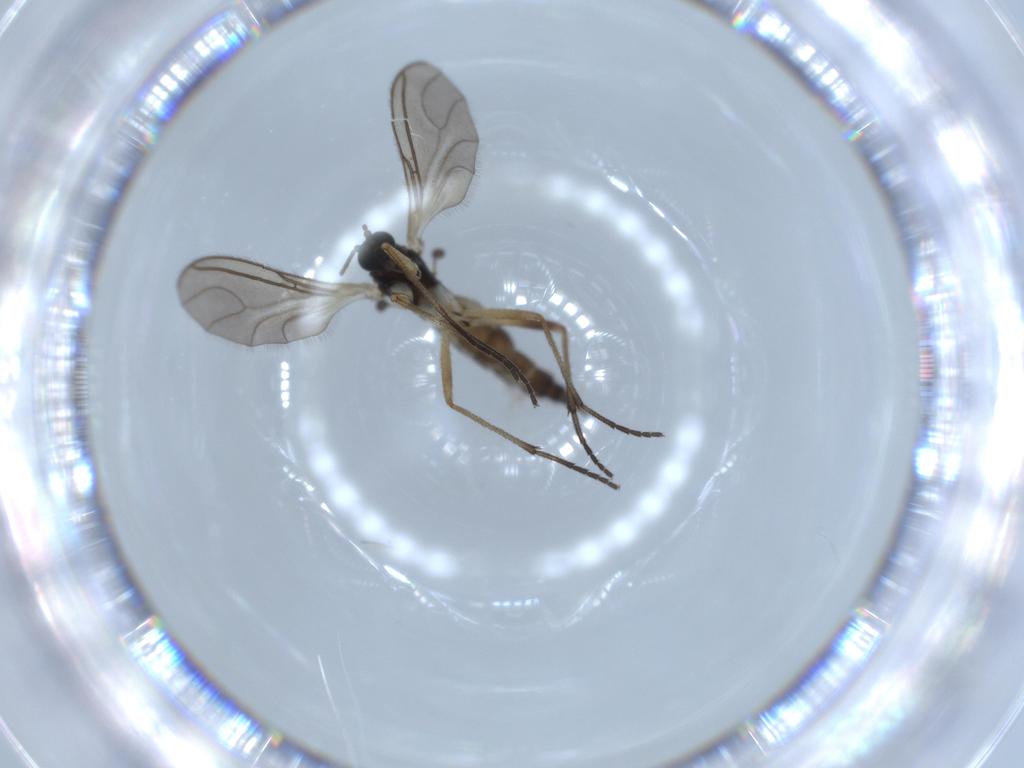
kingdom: Animalia
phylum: Arthropoda
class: Insecta
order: Diptera
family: Sciaridae
